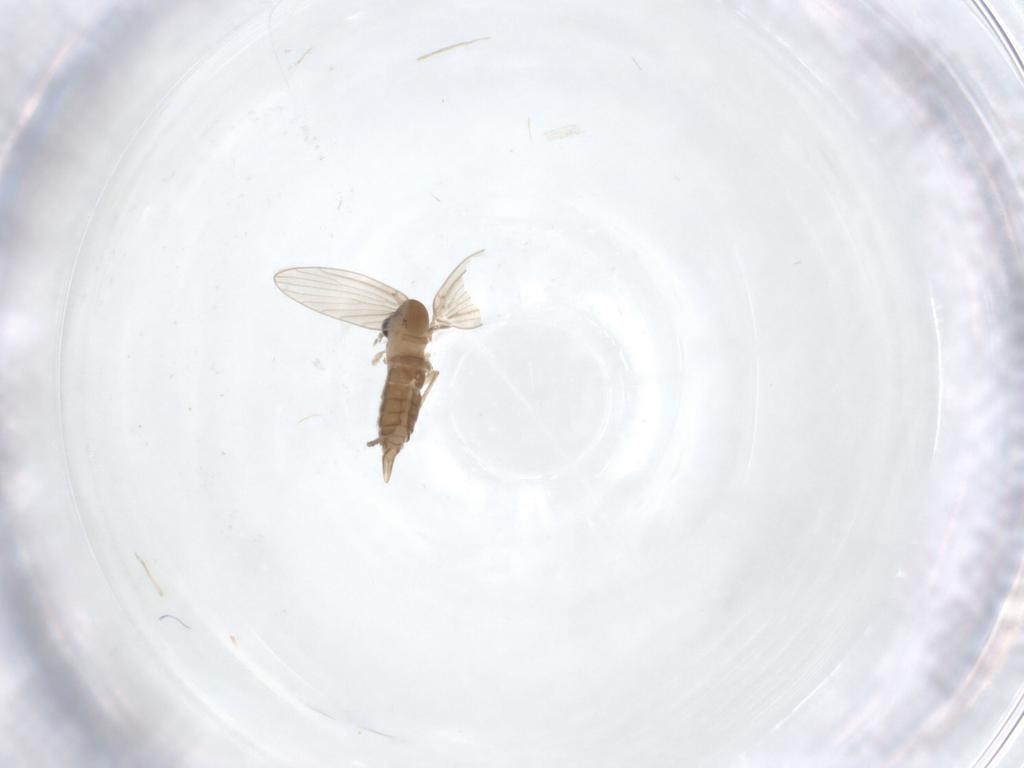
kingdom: Animalia
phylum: Arthropoda
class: Insecta
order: Diptera
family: Psychodidae
